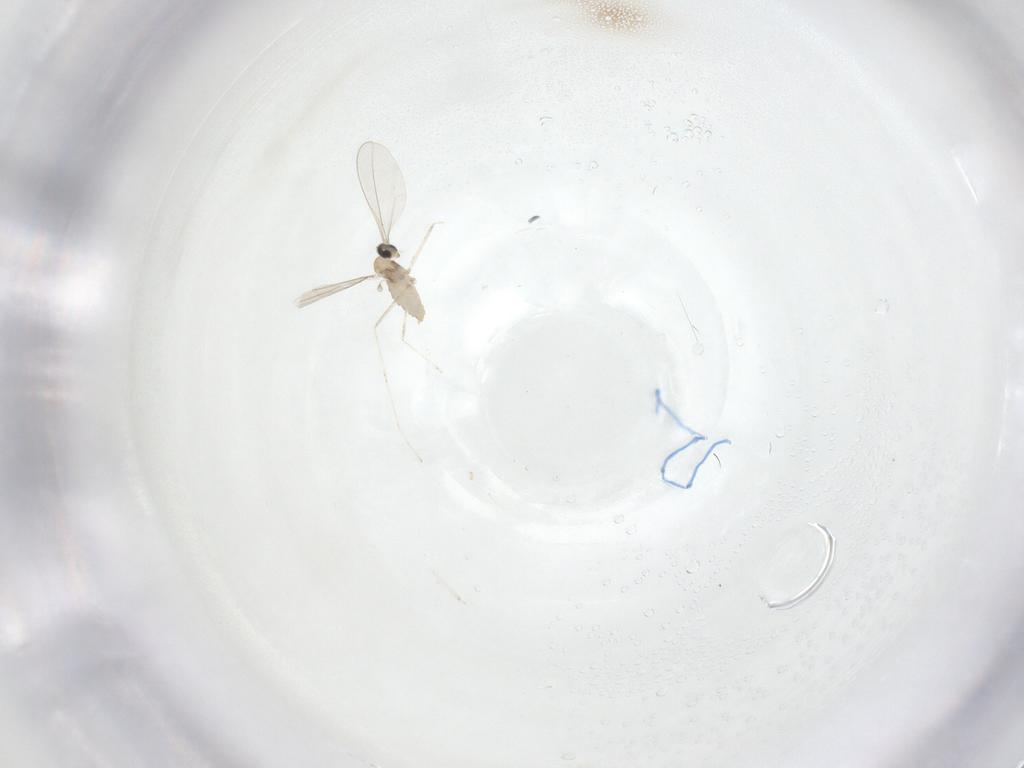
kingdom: Animalia
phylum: Arthropoda
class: Insecta
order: Diptera
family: Cecidomyiidae
